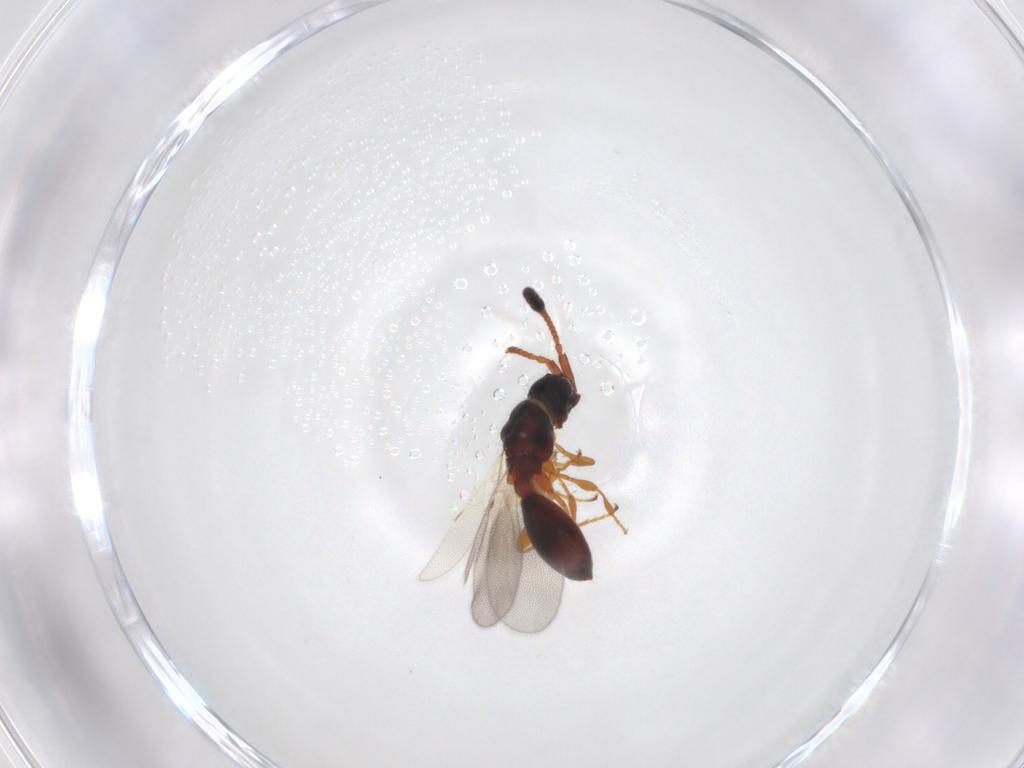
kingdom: Animalia
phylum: Arthropoda
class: Insecta
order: Hymenoptera
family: Diapriidae
